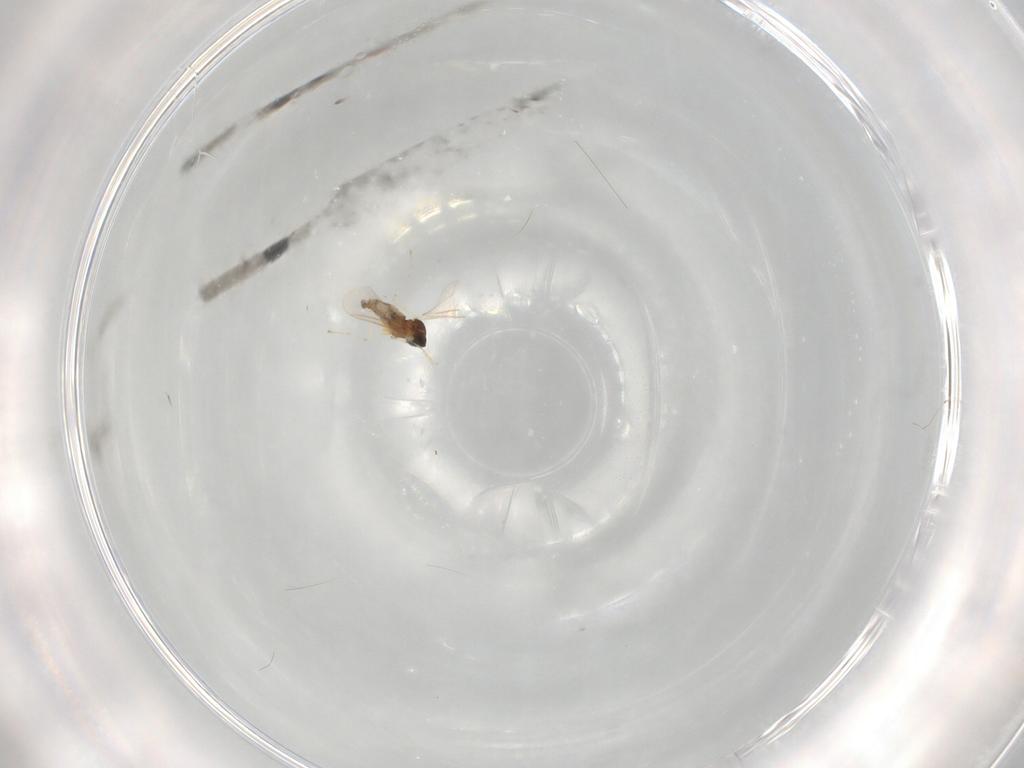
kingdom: Animalia
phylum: Arthropoda
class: Insecta
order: Diptera
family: Cecidomyiidae
